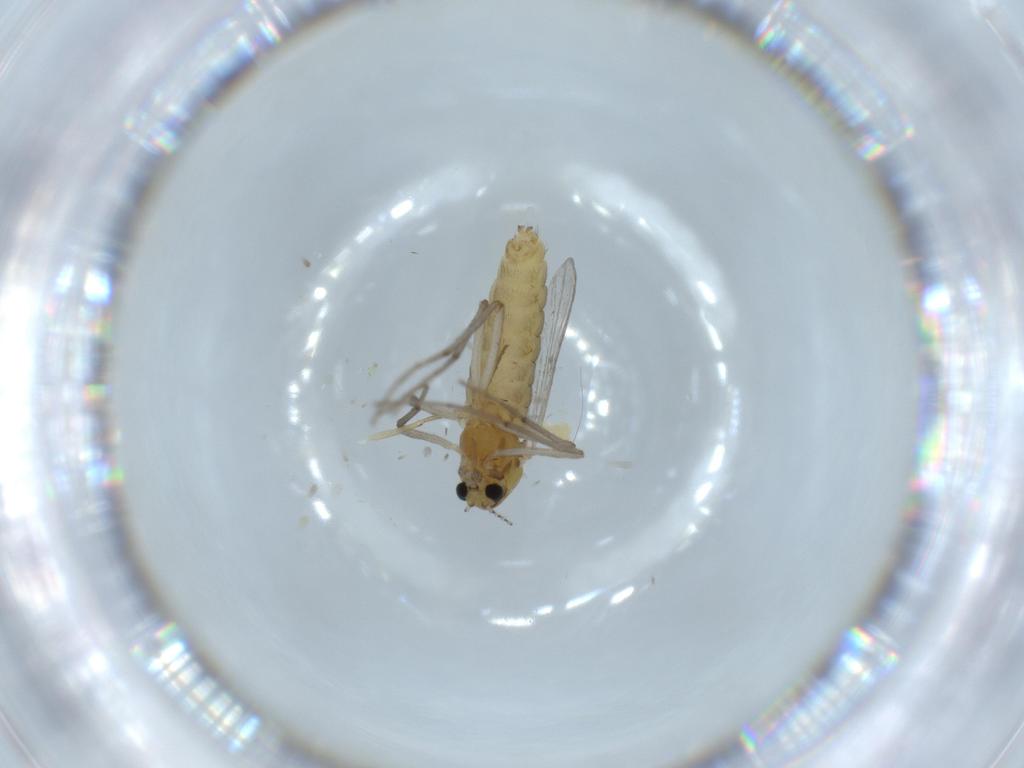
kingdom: Animalia
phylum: Arthropoda
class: Insecta
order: Diptera
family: Chironomidae
